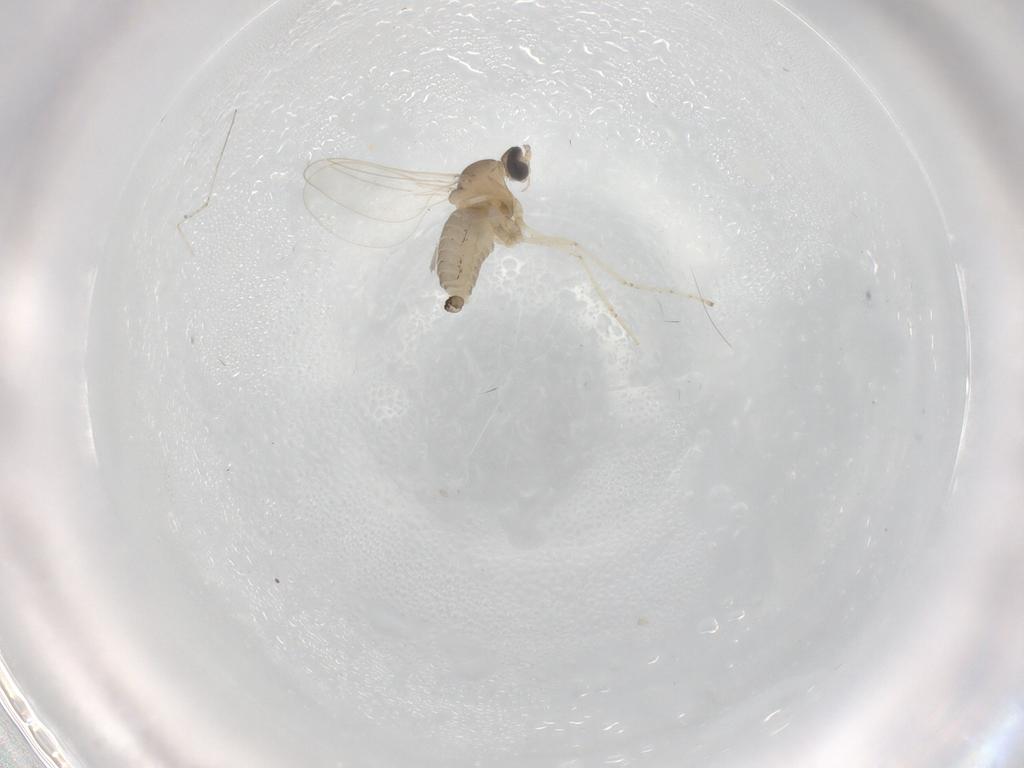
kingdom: Animalia
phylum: Arthropoda
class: Insecta
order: Diptera
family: Cecidomyiidae
